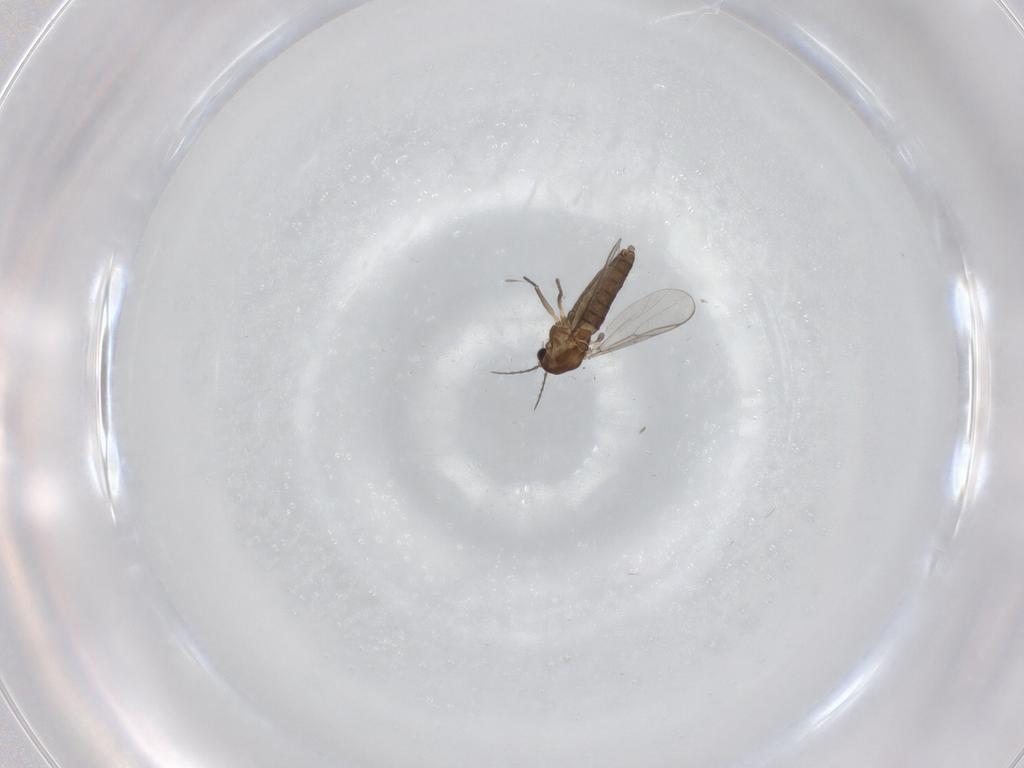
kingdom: Animalia
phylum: Arthropoda
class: Insecta
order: Diptera
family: Chironomidae
